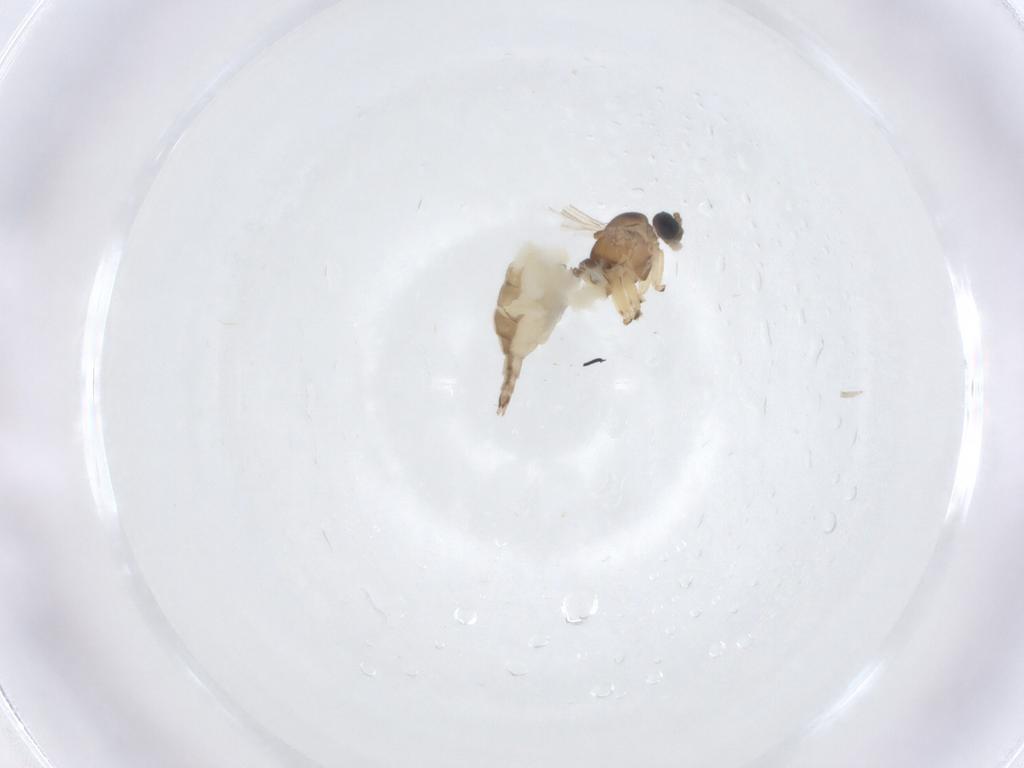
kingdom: Animalia
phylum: Arthropoda
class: Insecta
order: Diptera
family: Sciaridae
